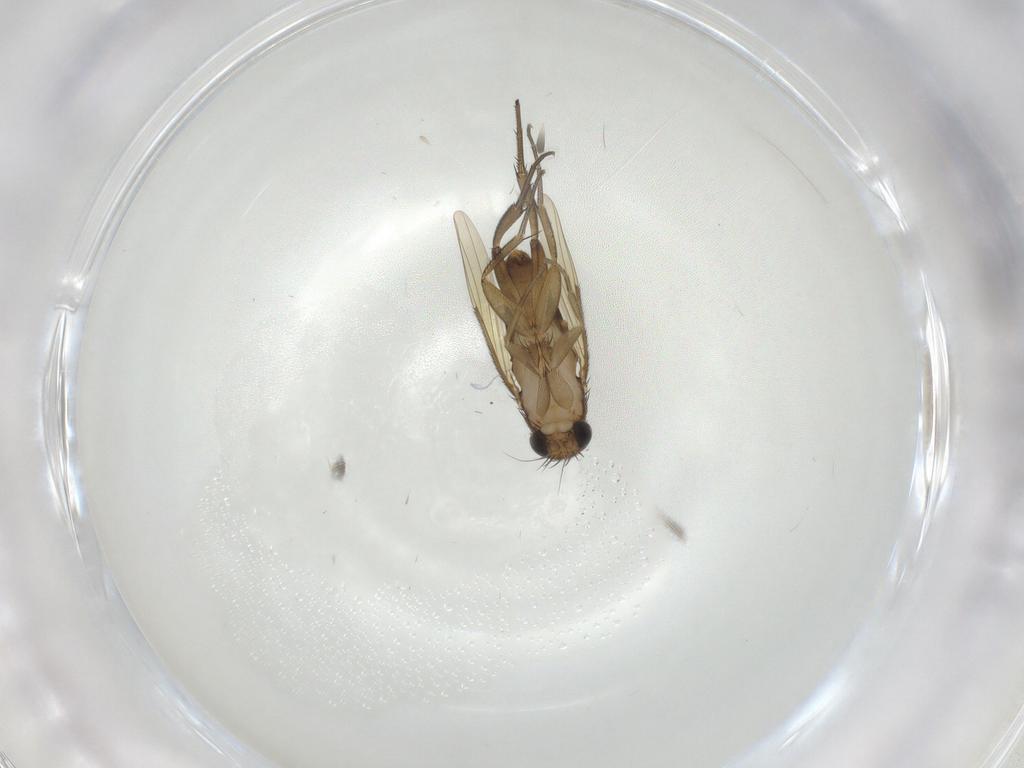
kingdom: Animalia
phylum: Arthropoda
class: Insecta
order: Diptera
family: Phoridae
